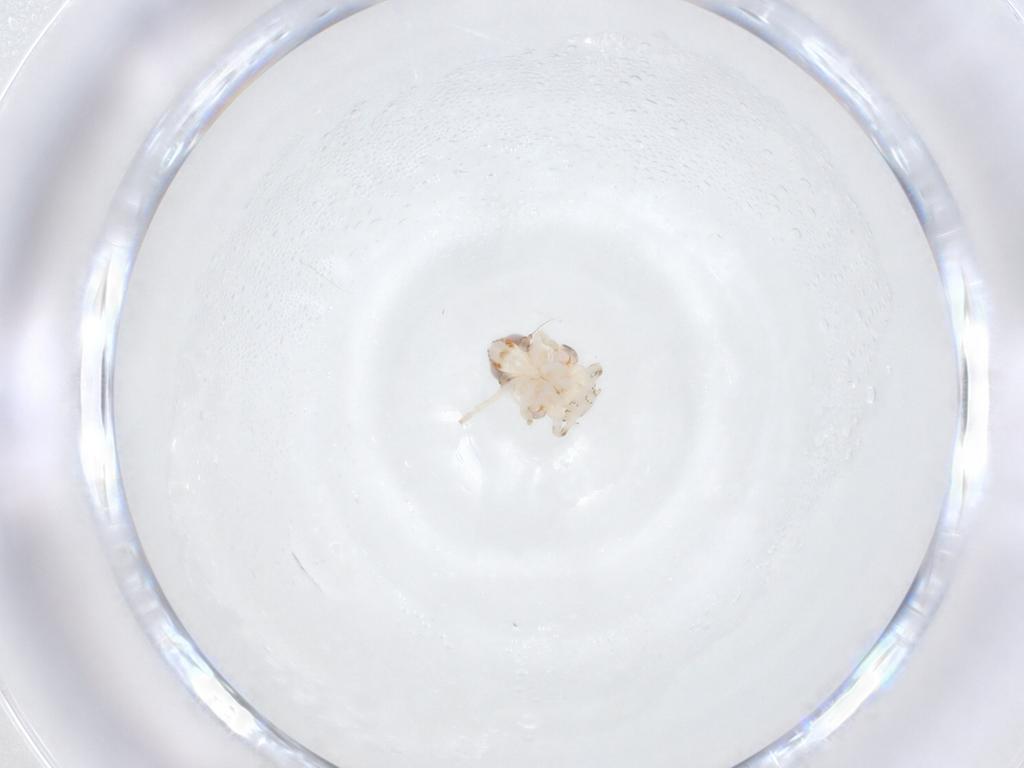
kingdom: Animalia
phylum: Arthropoda
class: Insecta
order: Hemiptera
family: Nogodinidae
